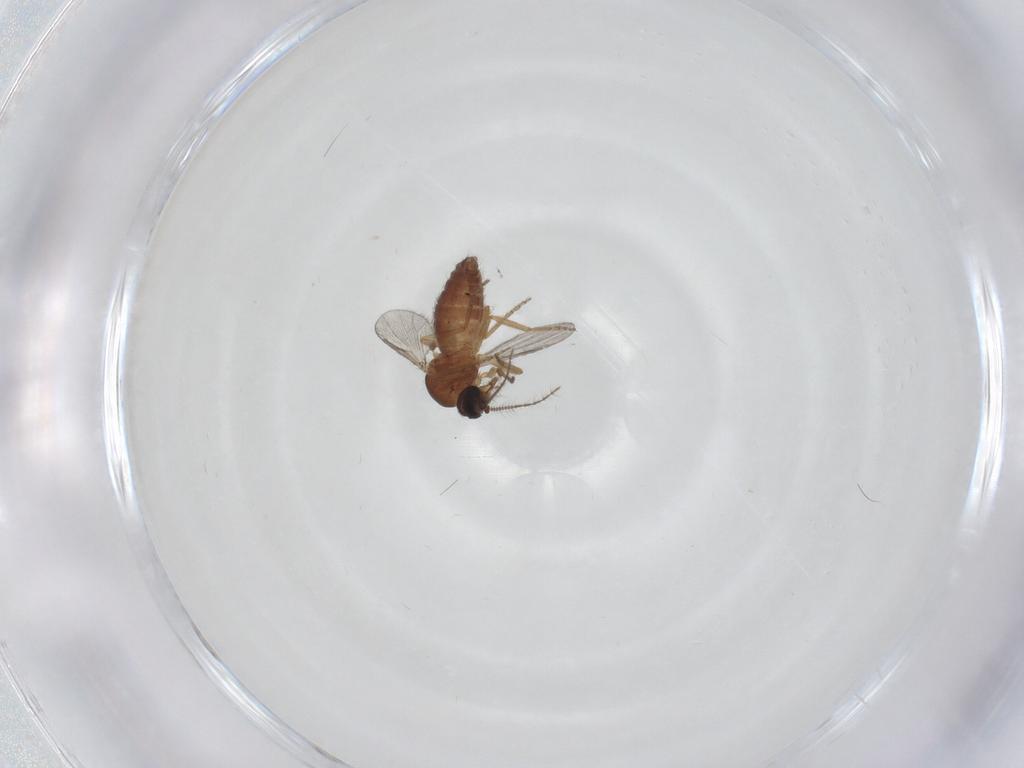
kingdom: Animalia
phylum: Arthropoda
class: Insecta
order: Diptera
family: Ceratopogonidae
